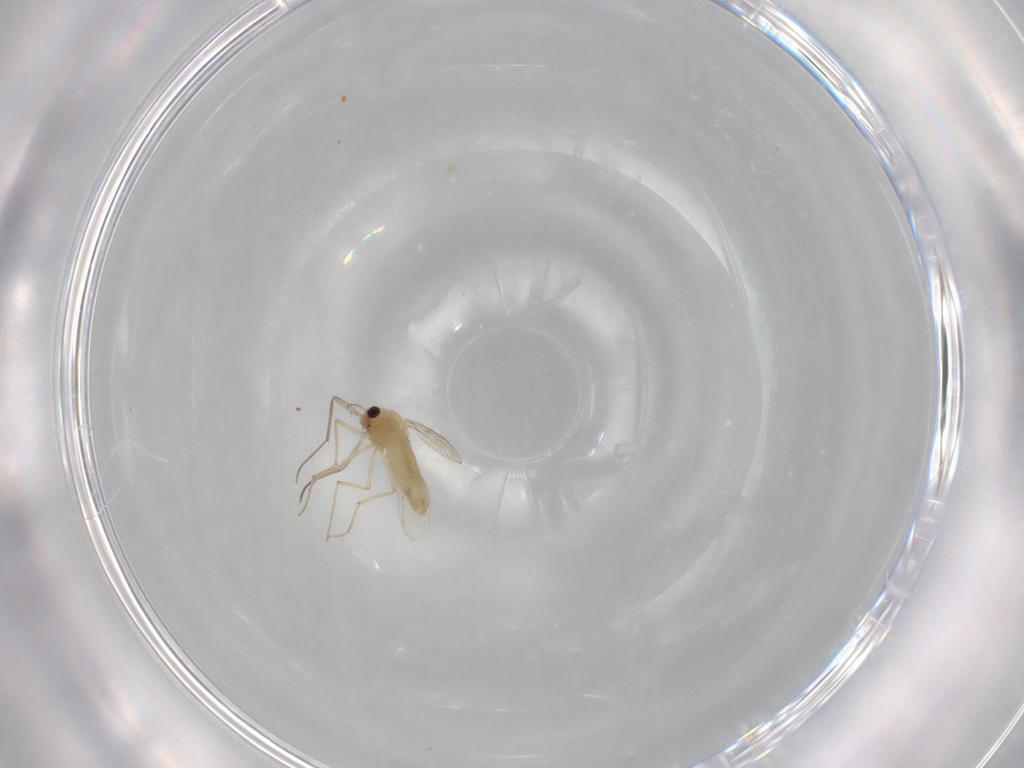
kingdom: Animalia
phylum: Arthropoda
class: Insecta
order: Diptera
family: Chironomidae
